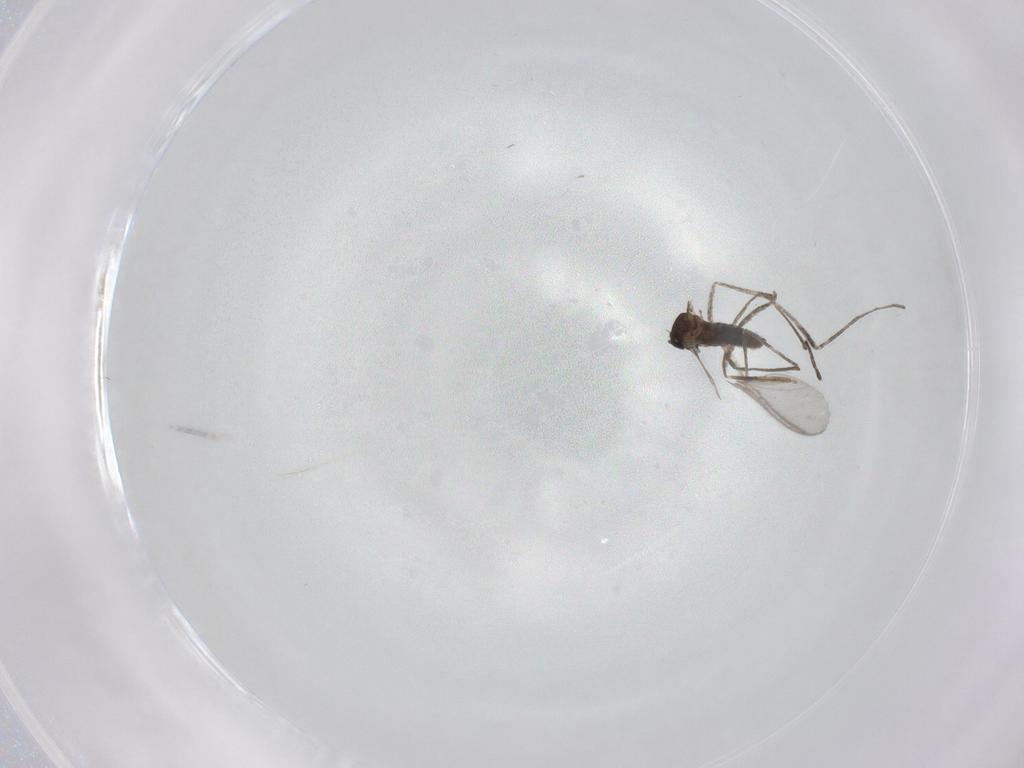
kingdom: Animalia
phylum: Arthropoda
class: Insecta
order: Diptera
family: Ceratopogonidae
